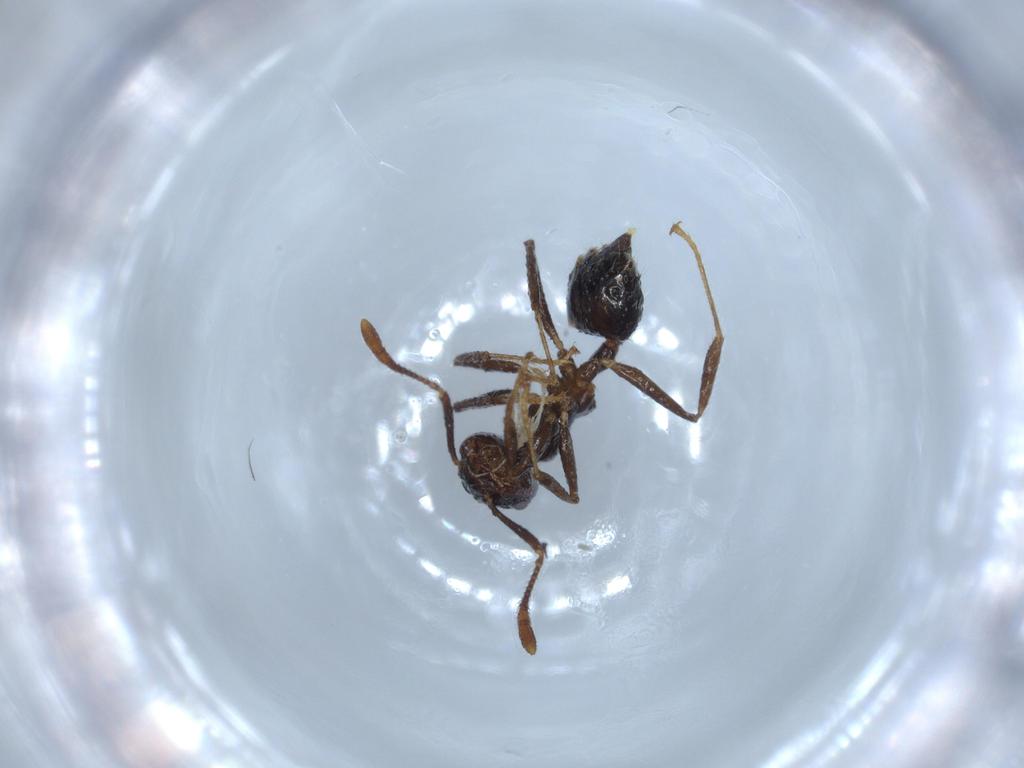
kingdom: Animalia
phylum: Arthropoda
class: Insecta
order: Hymenoptera
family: Formicidae
